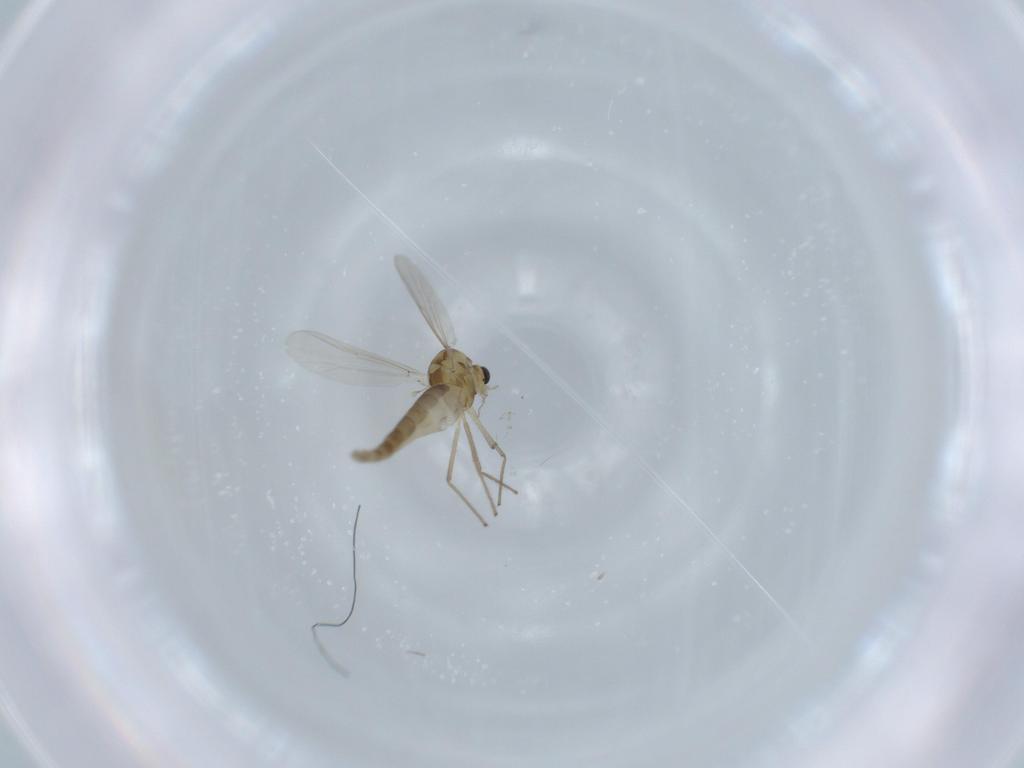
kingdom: Animalia
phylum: Arthropoda
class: Insecta
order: Diptera
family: Chironomidae
